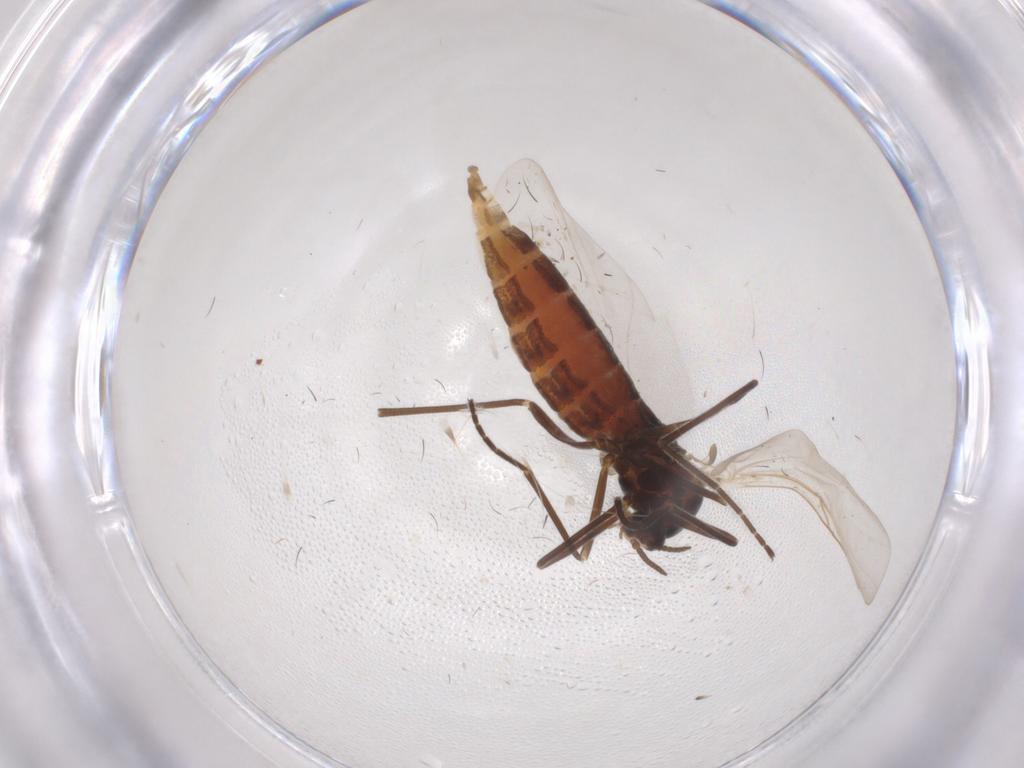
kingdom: Animalia
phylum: Arthropoda
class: Insecta
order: Diptera
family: Cecidomyiidae
